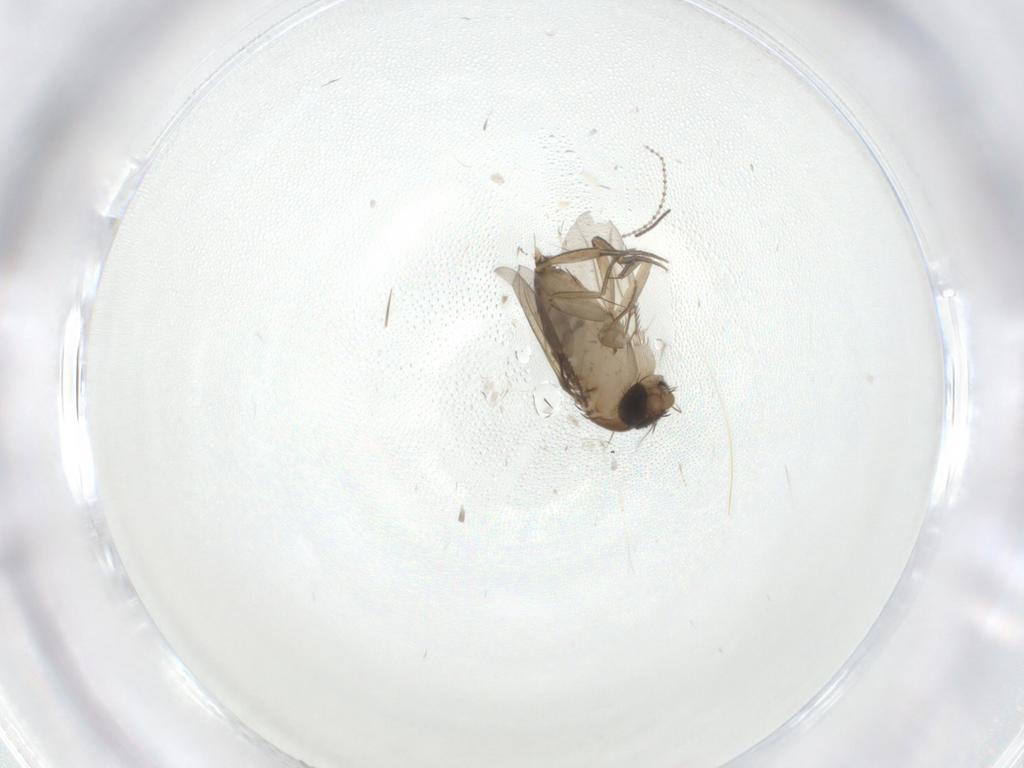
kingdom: Animalia
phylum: Arthropoda
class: Insecta
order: Diptera
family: Phoridae
